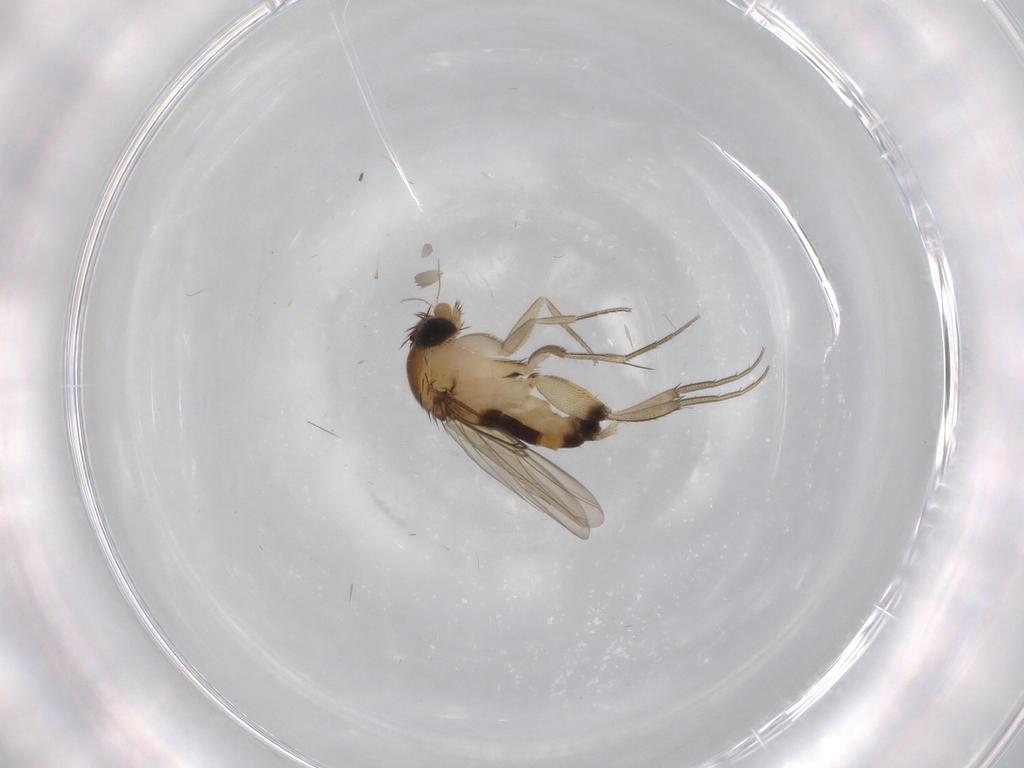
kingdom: Animalia
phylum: Arthropoda
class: Insecta
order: Diptera
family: Phoridae
